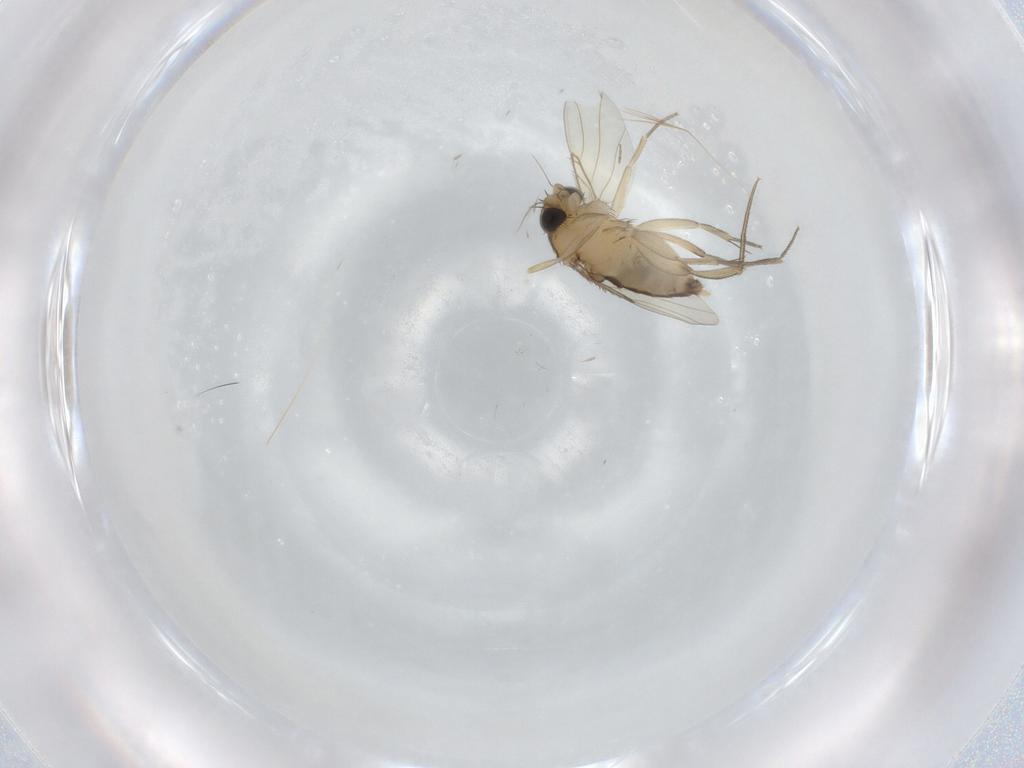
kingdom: Animalia
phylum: Arthropoda
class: Insecta
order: Diptera
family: Phoridae
